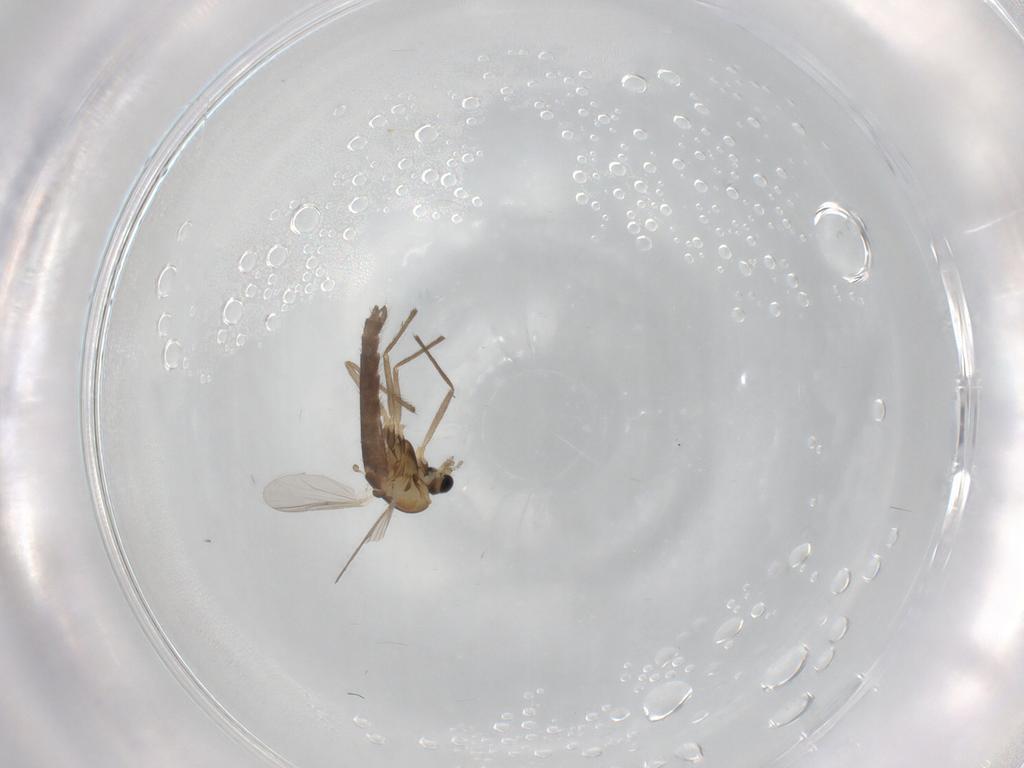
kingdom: Animalia
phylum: Arthropoda
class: Insecta
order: Diptera
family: Chironomidae
